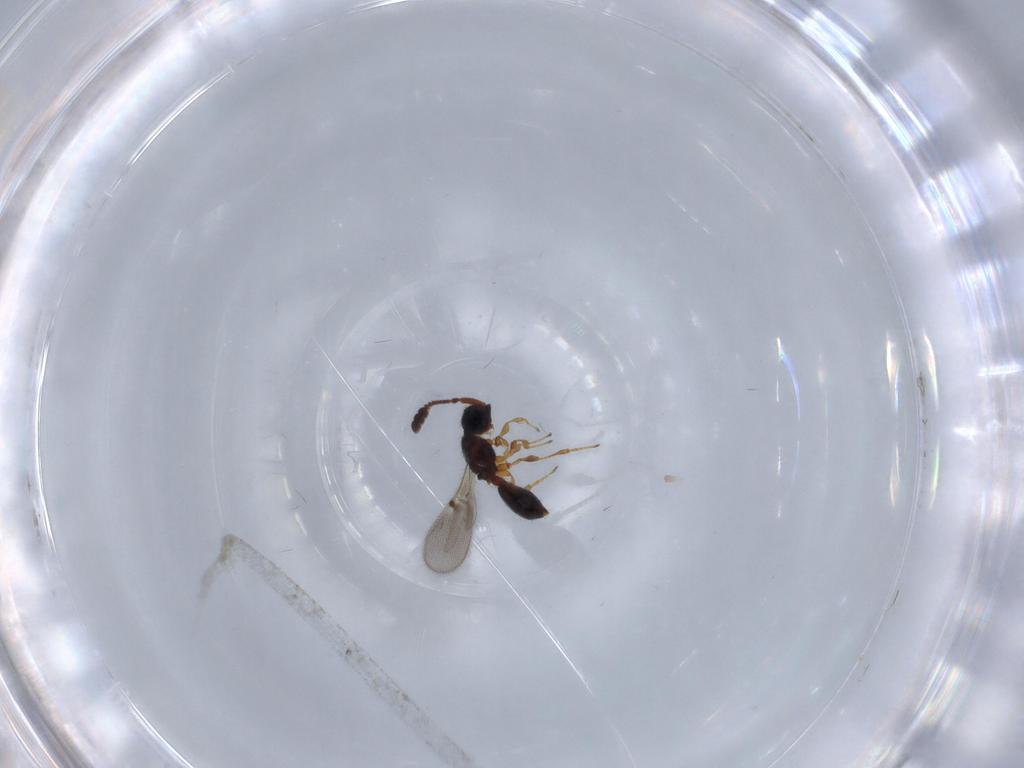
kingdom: Animalia
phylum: Arthropoda
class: Insecta
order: Hymenoptera
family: Diapriidae
